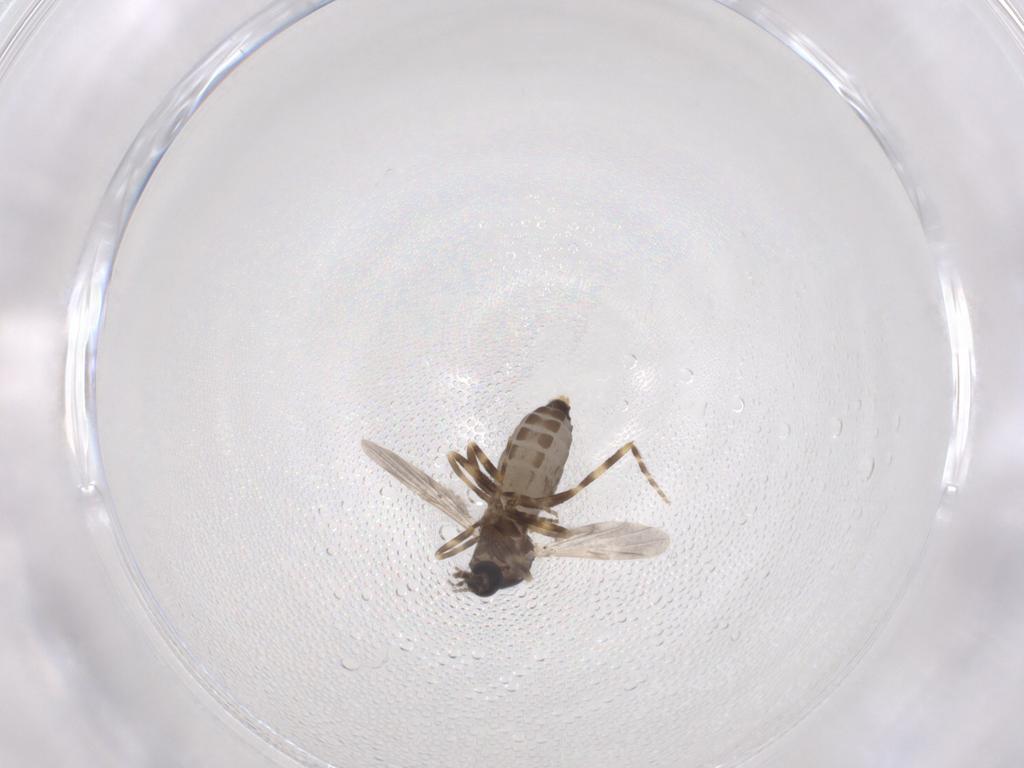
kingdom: Animalia
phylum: Arthropoda
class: Insecta
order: Diptera
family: Ceratopogonidae
